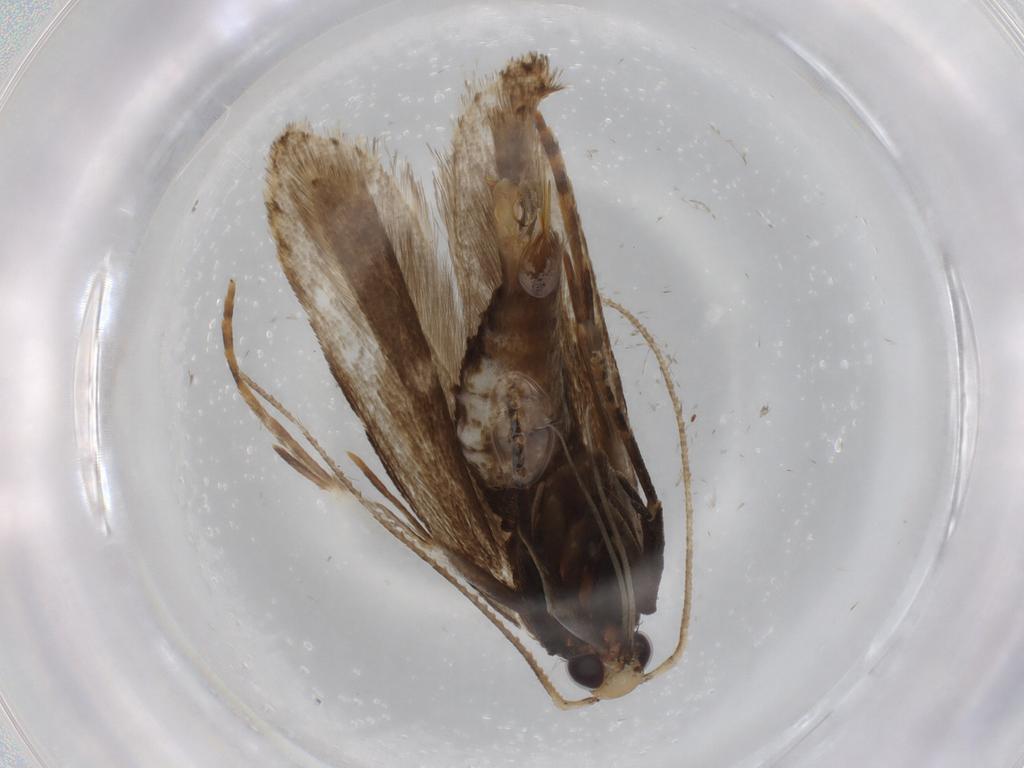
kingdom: Animalia
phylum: Arthropoda
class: Insecta
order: Lepidoptera
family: Cosmopterigidae
